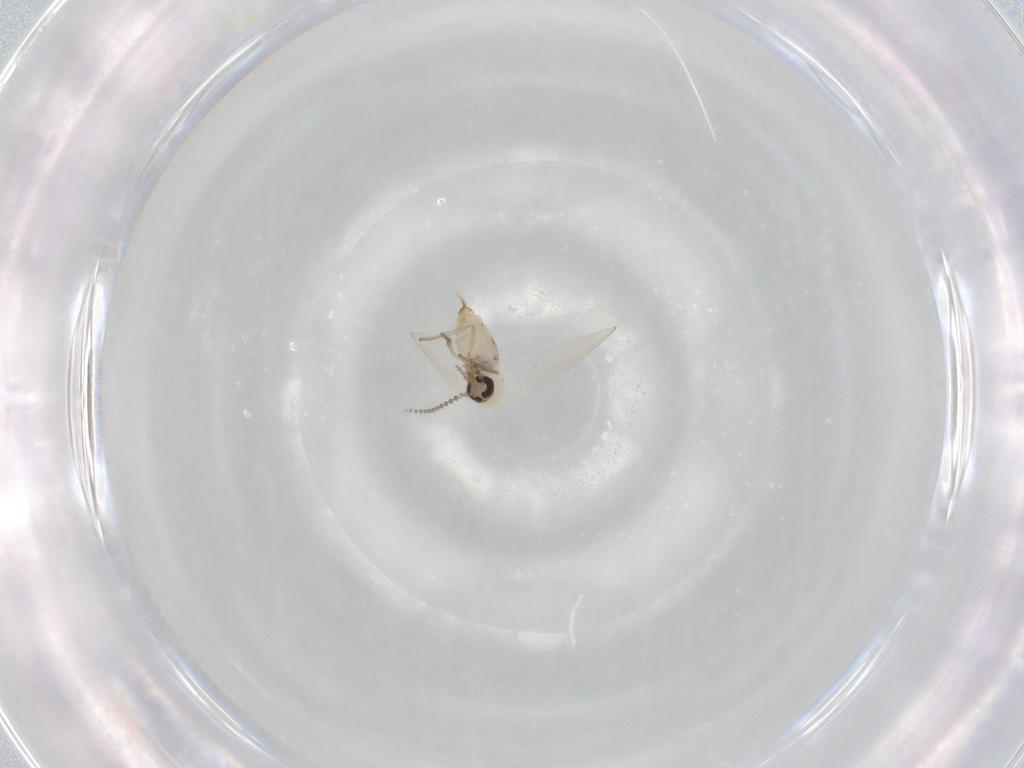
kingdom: Animalia
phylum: Arthropoda
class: Insecta
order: Diptera
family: Psychodidae
